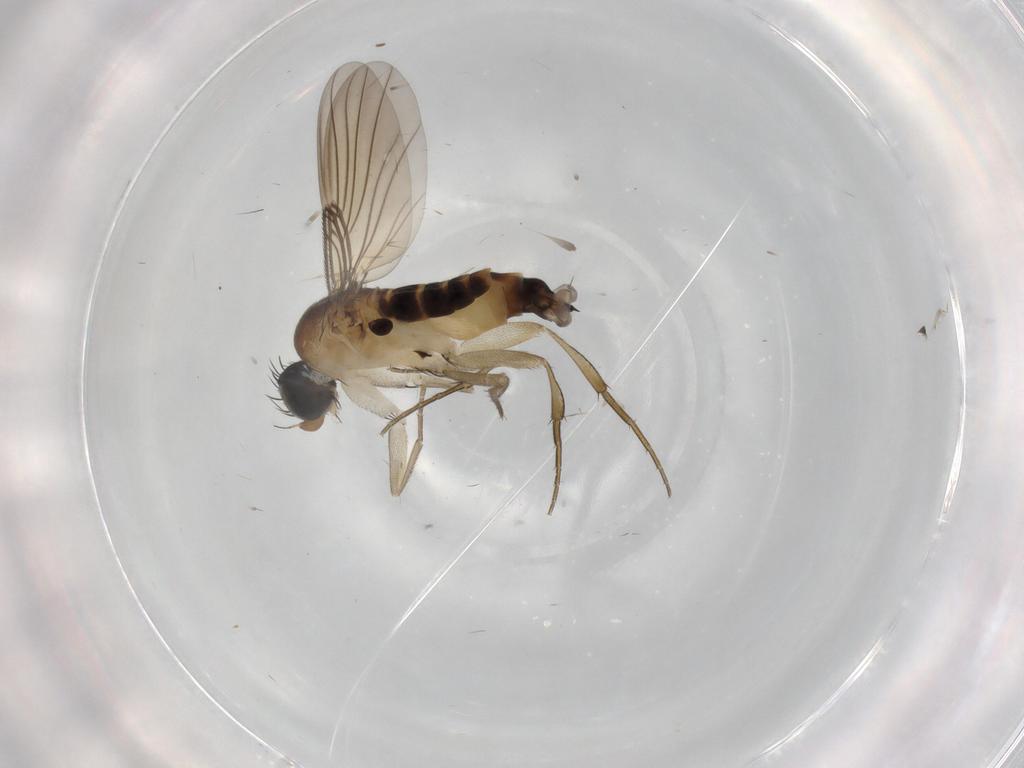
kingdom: Animalia
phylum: Arthropoda
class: Insecta
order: Diptera
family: Phoridae
